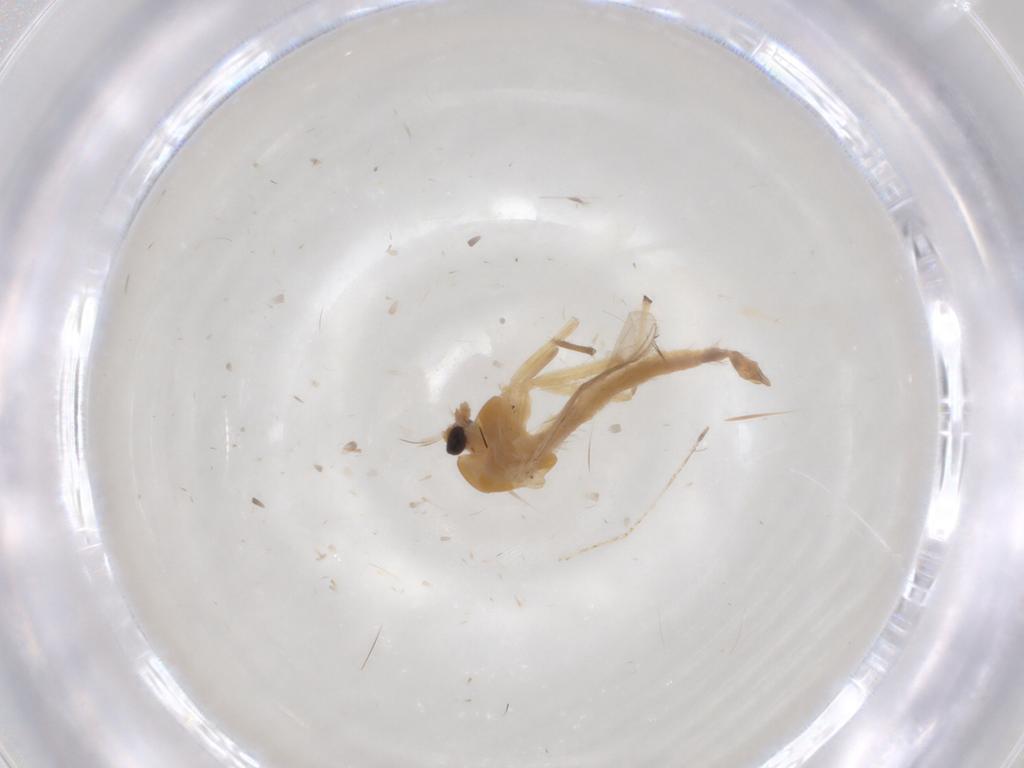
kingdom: Animalia
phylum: Arthropoda
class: Insecta
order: Diptera
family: Chironomidae
